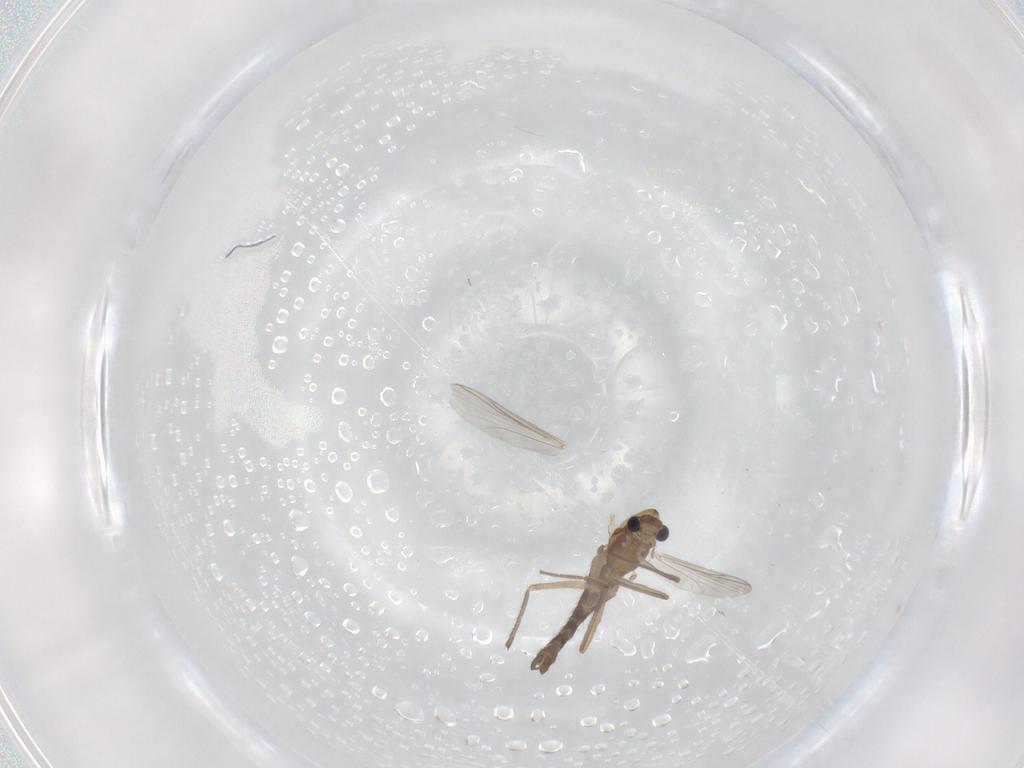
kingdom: Animalia
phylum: Arthropoda
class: Insecta
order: Diptera
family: Chironomidae
